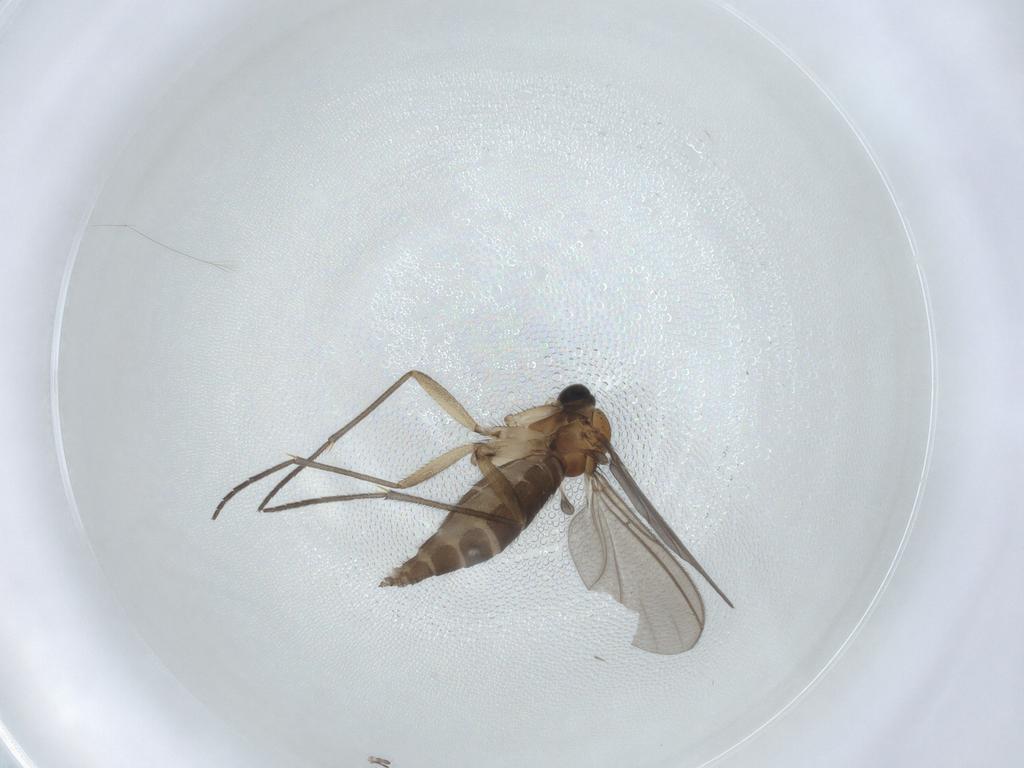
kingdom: Animalia
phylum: Arthropoda
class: Insecta
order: Diptera
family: Sciaridae
